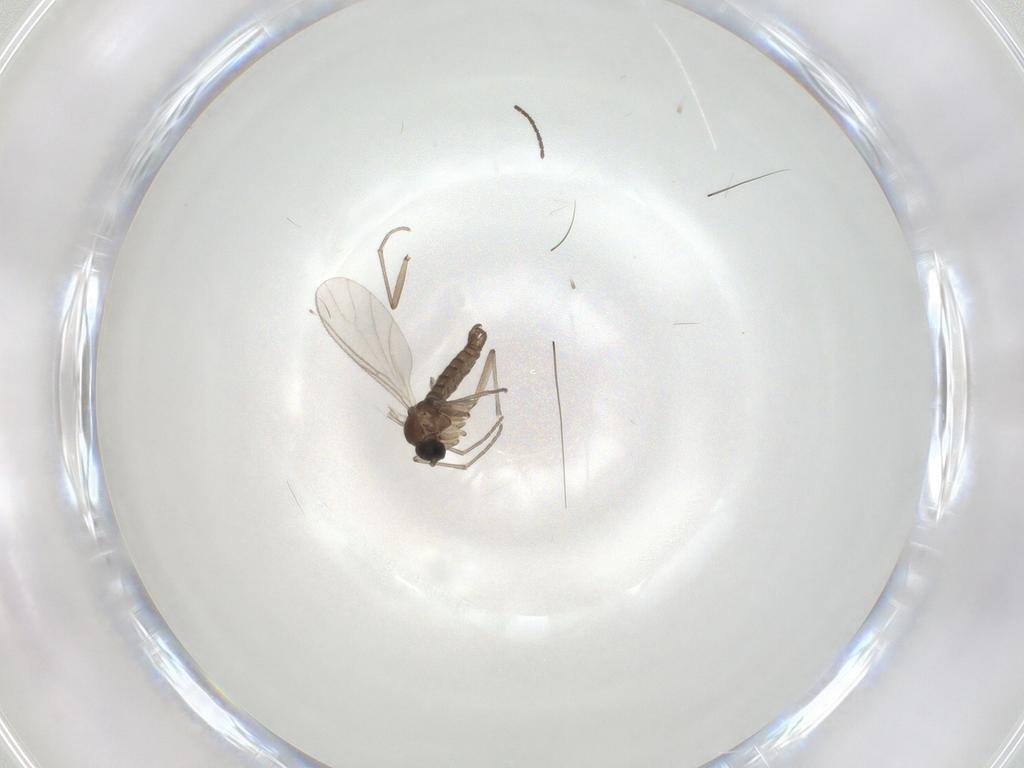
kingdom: Animalia
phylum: Arthropoda
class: Insecta
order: Diptera
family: Sciaridae
